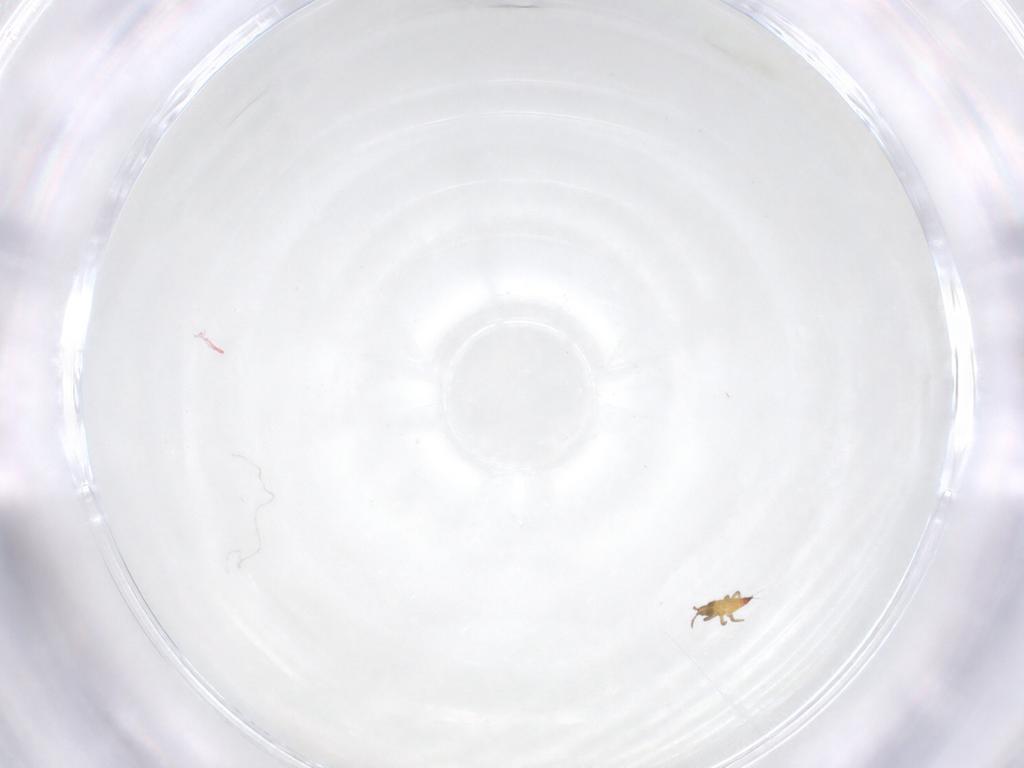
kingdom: Animalia
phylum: Arthropoda
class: Insecta
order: Thysanoptera
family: Phlaeothripidae
